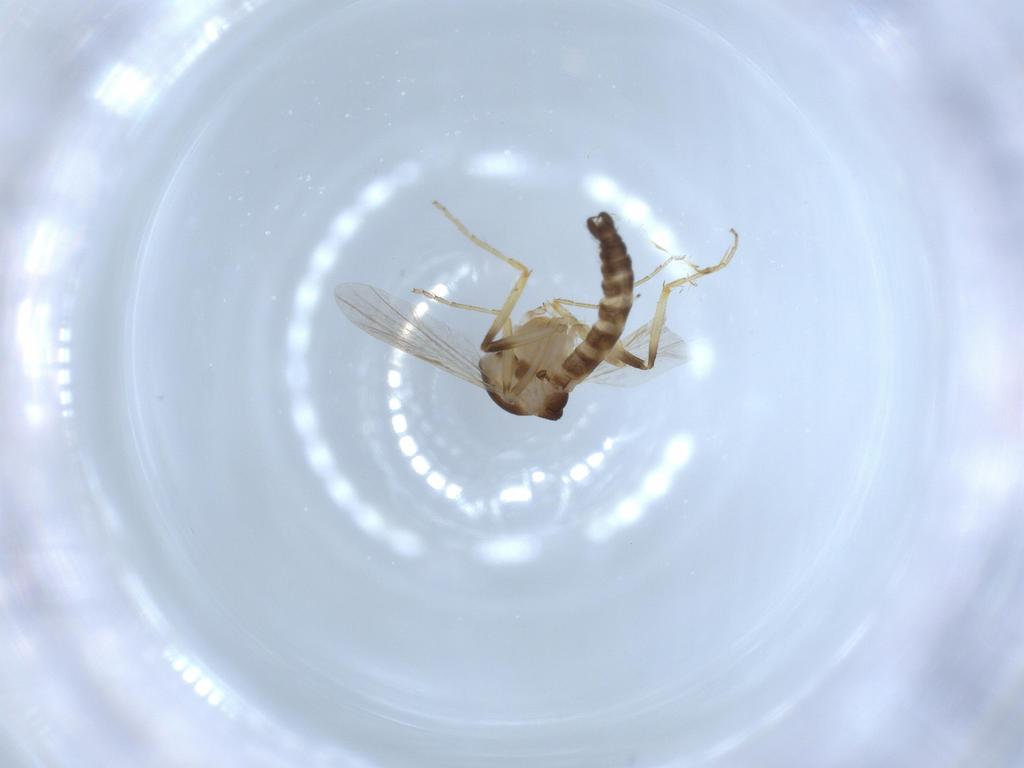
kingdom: Animalia
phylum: Arthropoda
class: Insecta
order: Diptera
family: Ceratopogonidae
